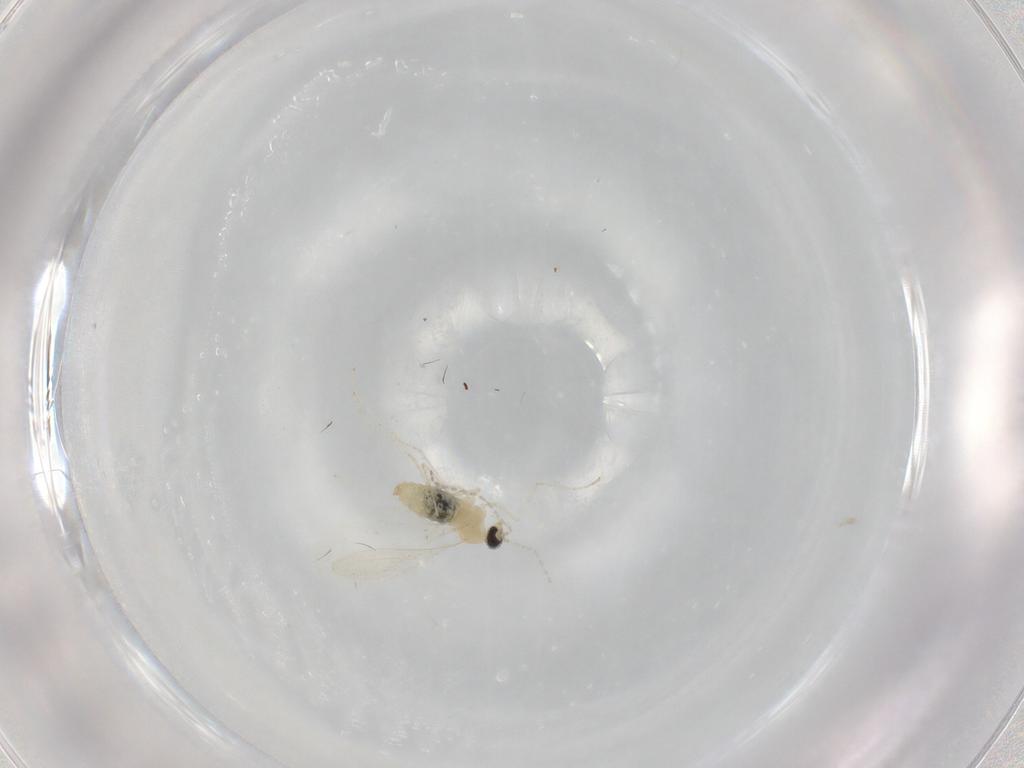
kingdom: Animalia
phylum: Arthropoda
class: Insecta
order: Diptera
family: Cecidomyiidae
